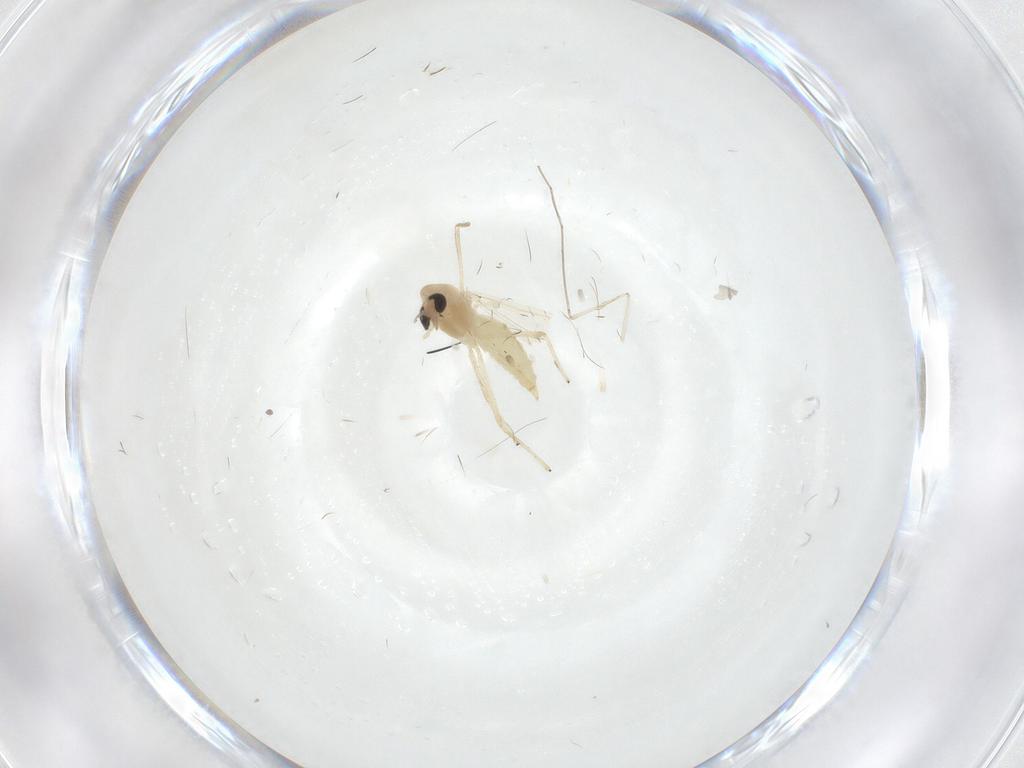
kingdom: Animalia
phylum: Arthropoda
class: Insecta
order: Diptera
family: Chironomidae
